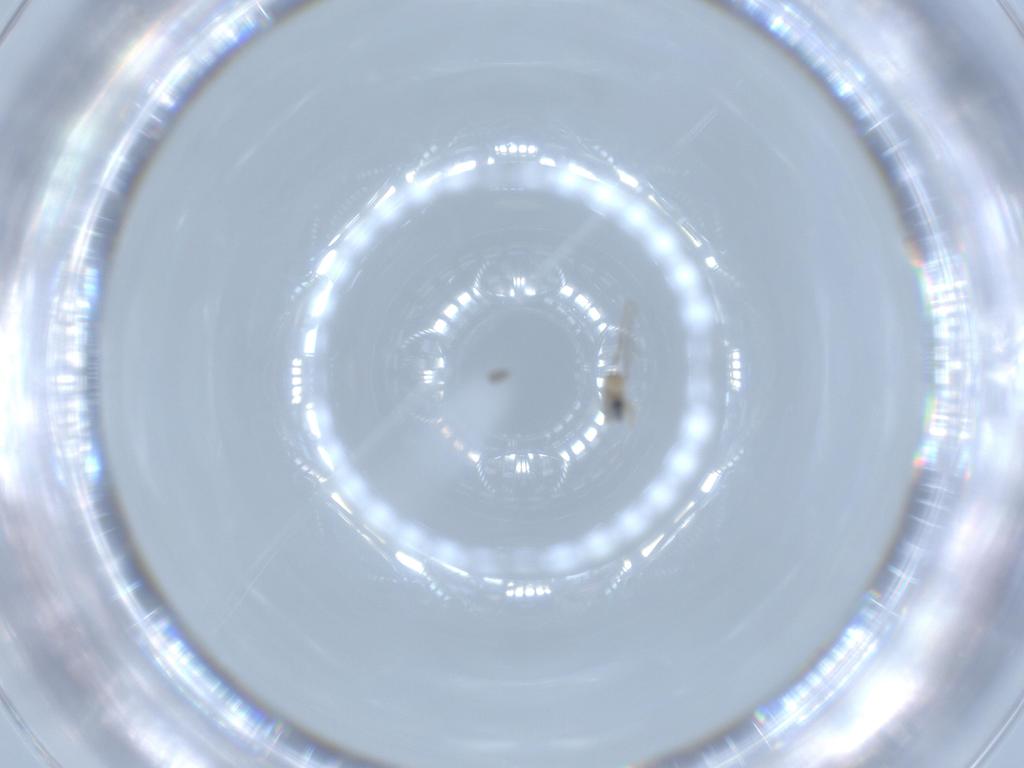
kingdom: Animalia
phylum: Arthropoda
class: Insecta
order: Diptera
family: Cecidomyiidae
